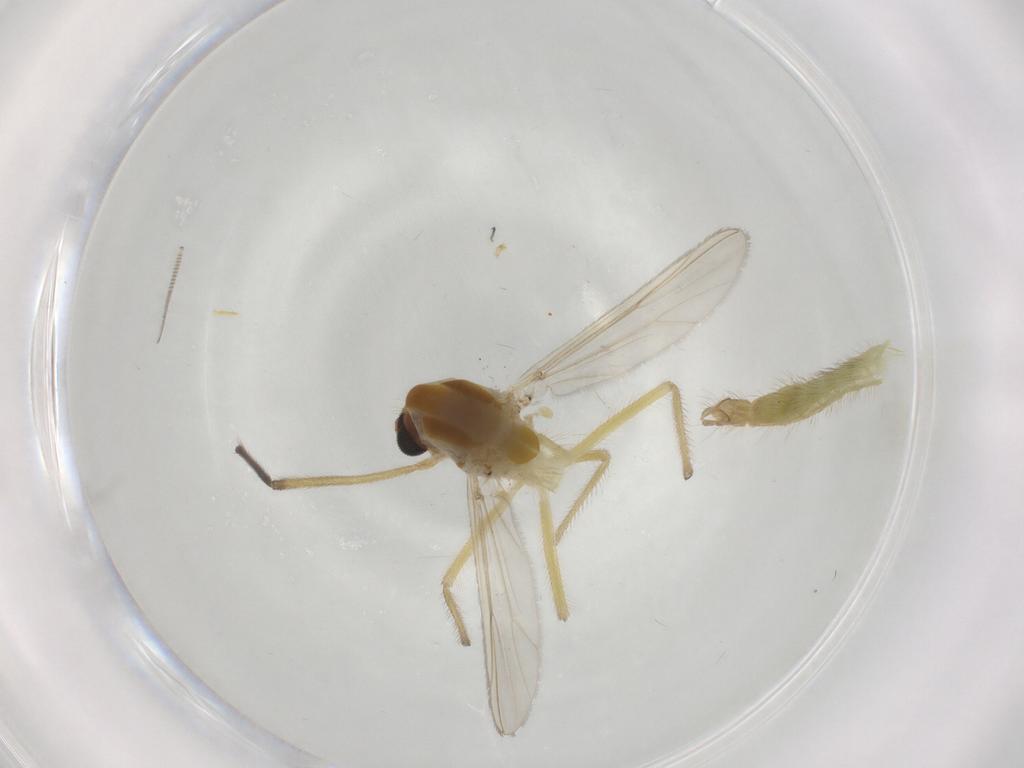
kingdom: Animalia
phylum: Arthropoda
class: Insecta
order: Diptera
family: Chironomidae
